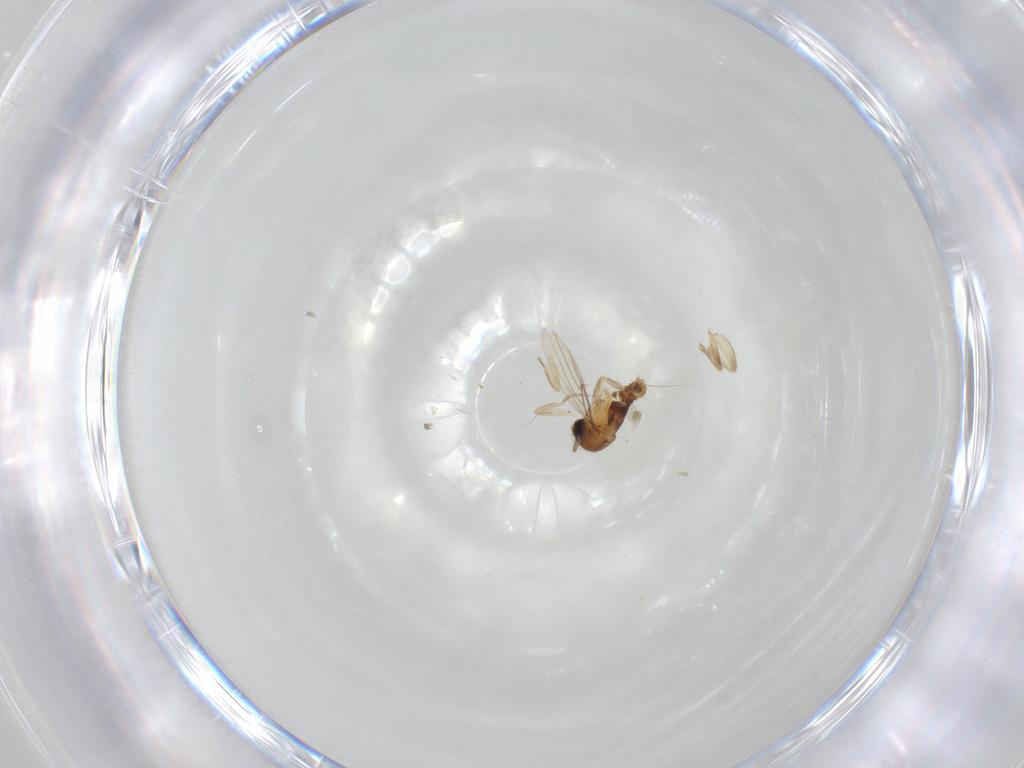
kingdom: Animalia
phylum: Arthropoda
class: Insecta
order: Diptera
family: Phoridae
